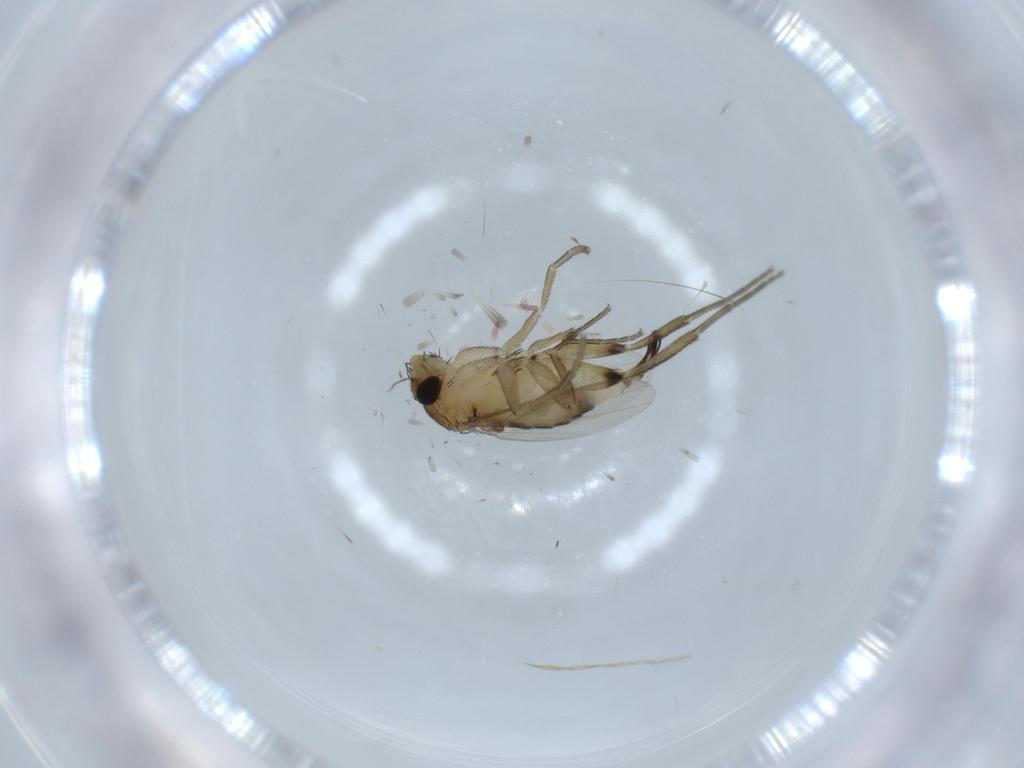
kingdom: Animalia
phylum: Arthropoda
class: Insecta
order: Diptera
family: Phoridae
